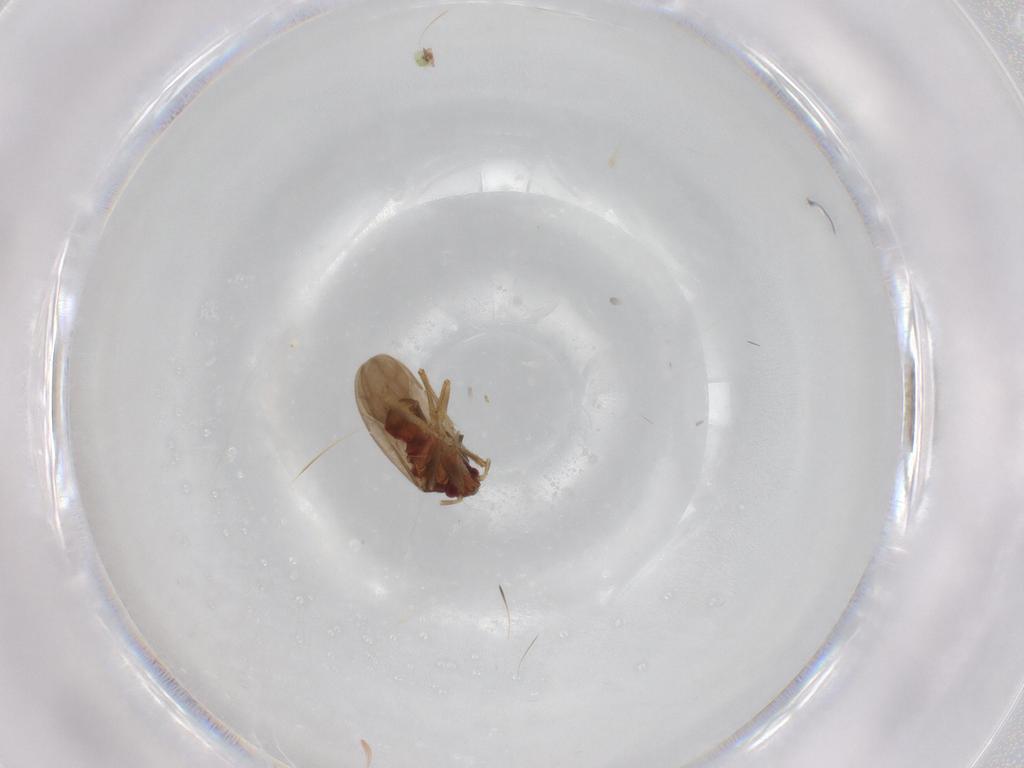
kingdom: Animalia
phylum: Arthropoda
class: Insecta
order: Hemiptera
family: Ceratocombidae
